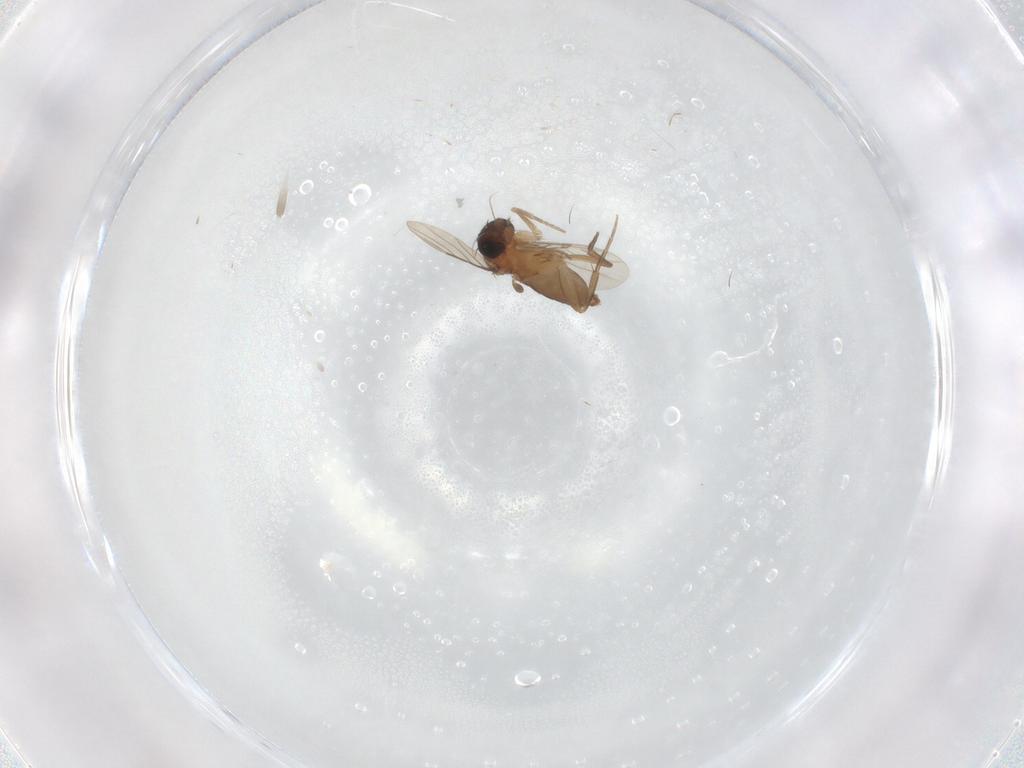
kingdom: Animalia
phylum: Arthropoda
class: Insecta
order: Diptera
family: Phoridae
